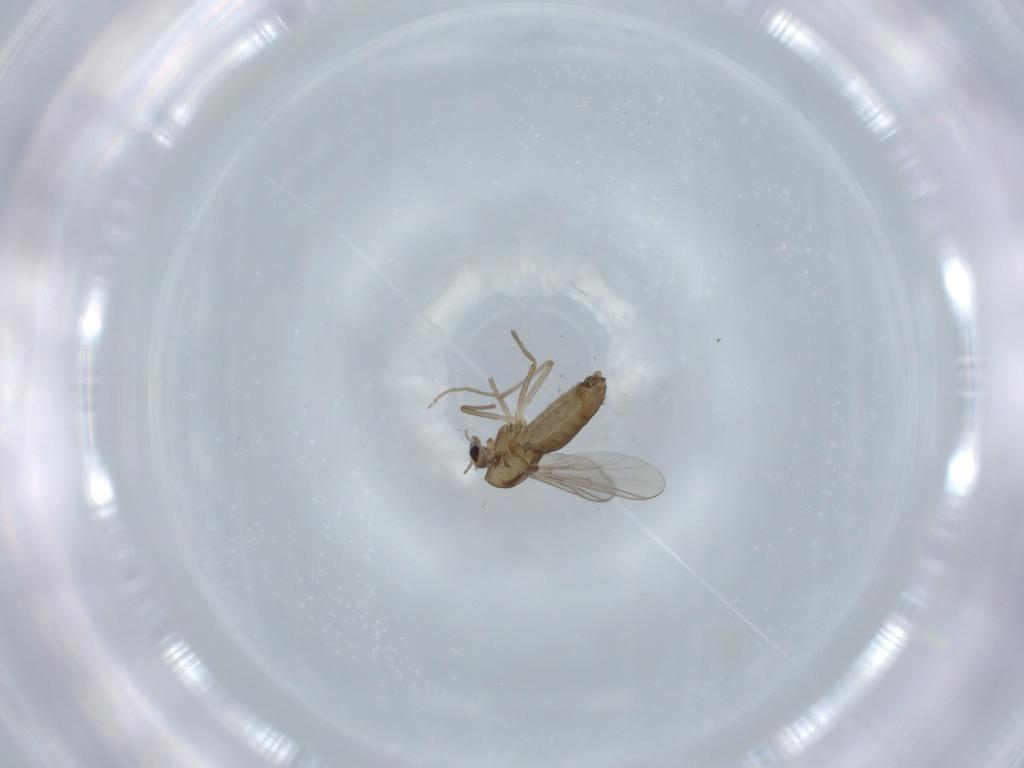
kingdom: Animalia
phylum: Arthropoda
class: Insecta
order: Diptera
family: Chironomidae
